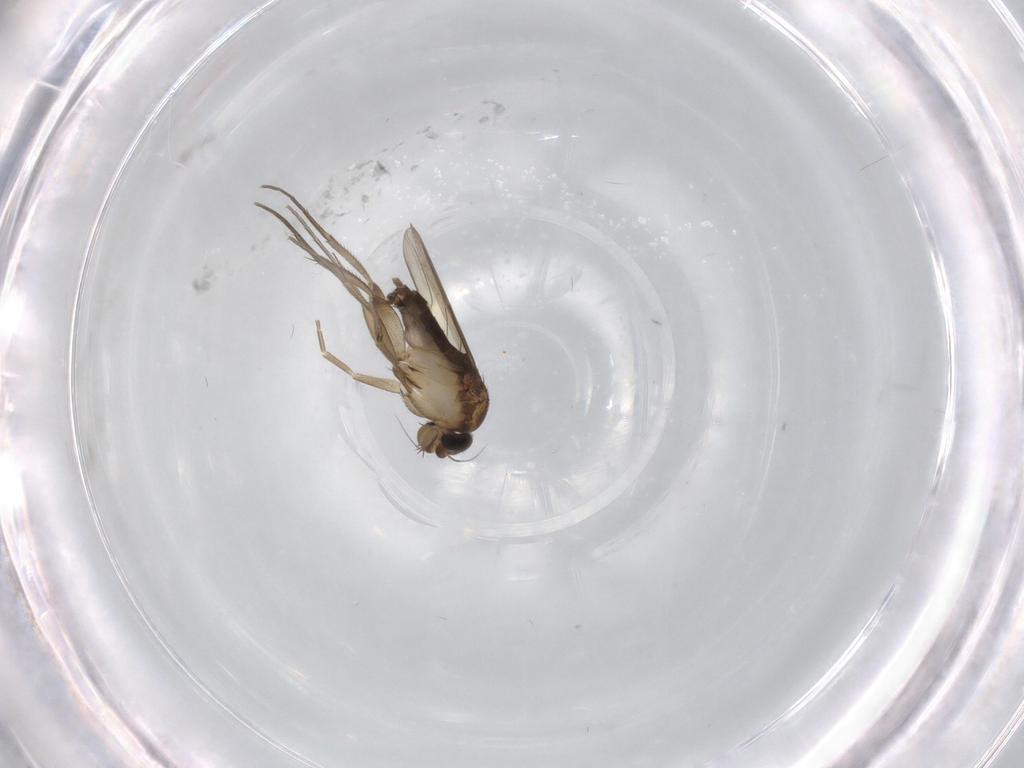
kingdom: Animalia
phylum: Arthropoda
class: Insecta
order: Diptera
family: Phoridae
